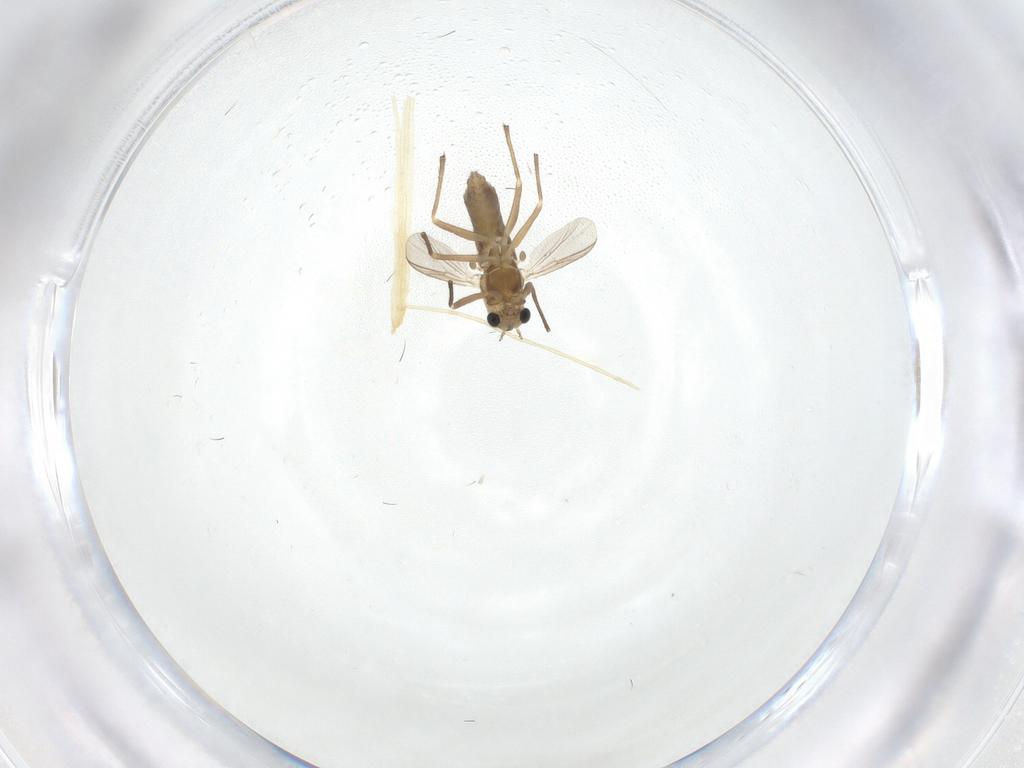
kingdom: Animalia
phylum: Arthropoda
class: Insecta
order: Diptera
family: Chironomidae
